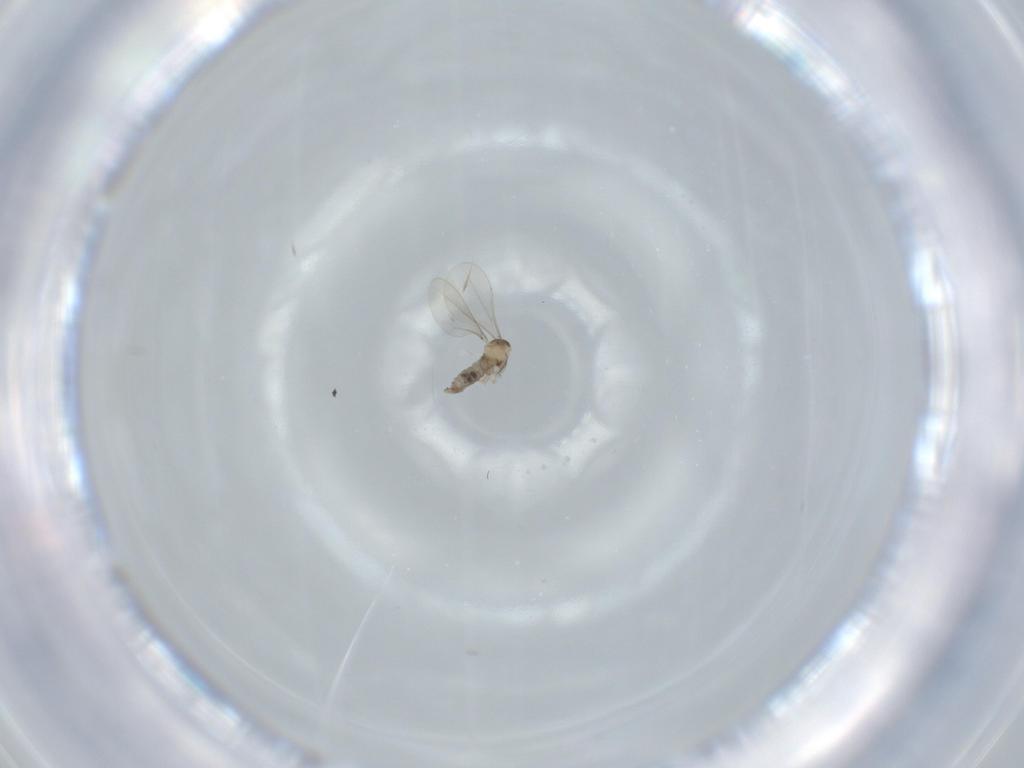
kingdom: Animalia
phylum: Arthropoda
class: Insecta
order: Diptera
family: Cecidomyiidae
